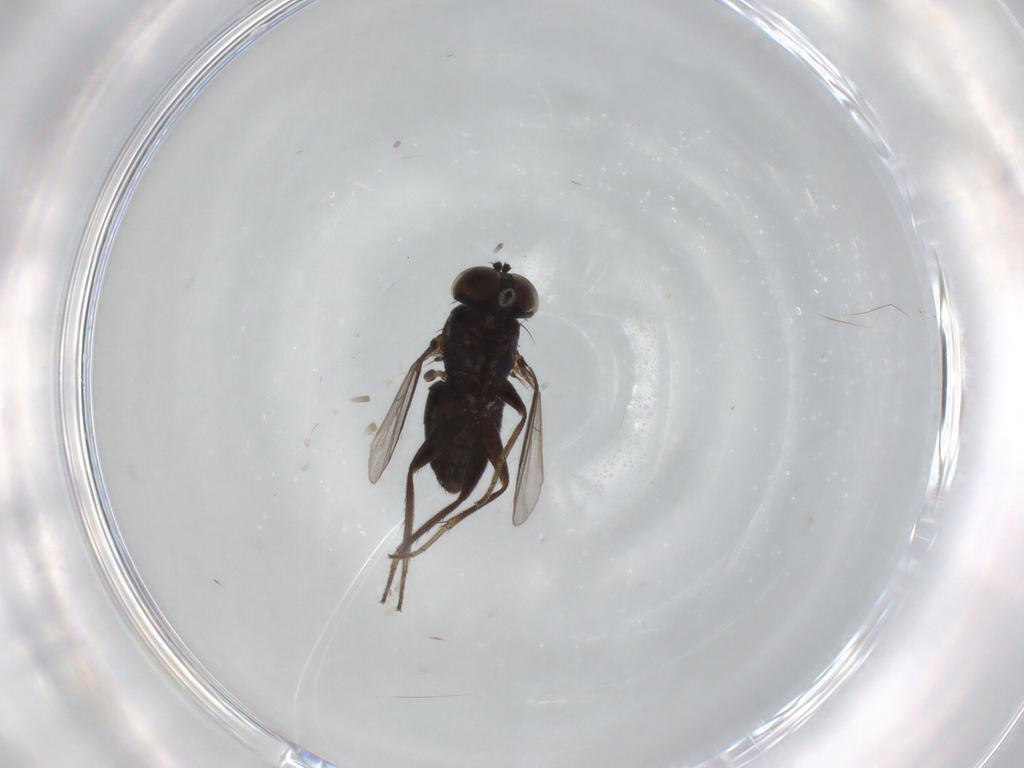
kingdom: Animalia
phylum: Arthropoda
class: Insecta
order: Diptera
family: Dolichopodidae
